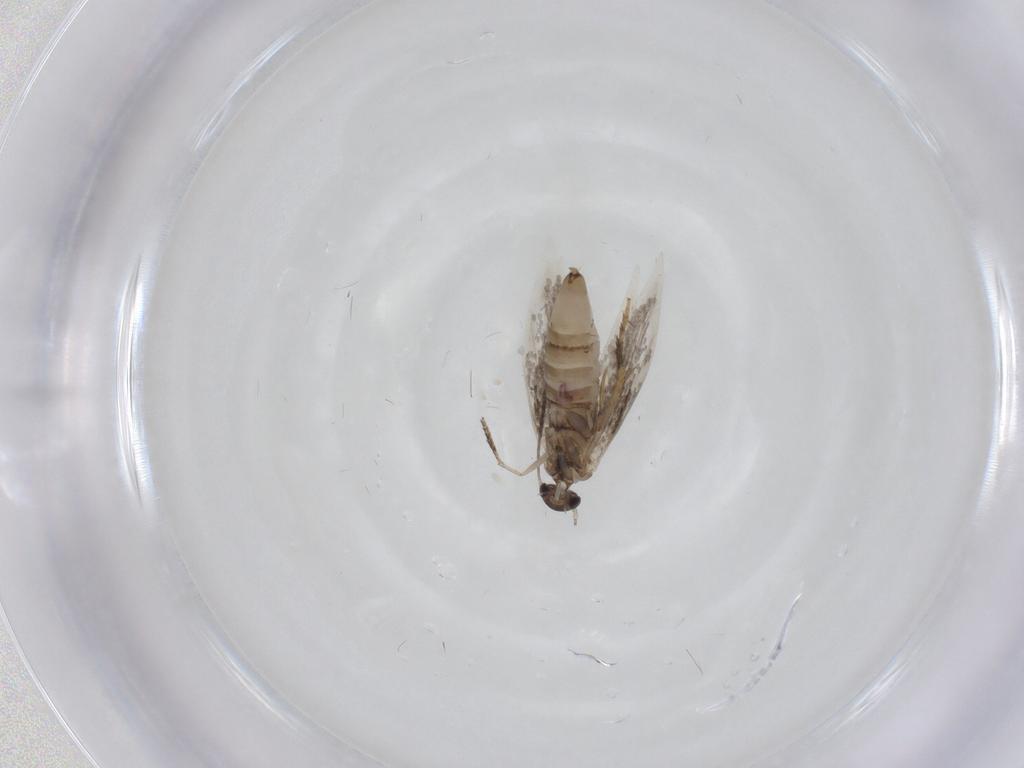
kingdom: Animalia
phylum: Arthropoda
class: Insecta
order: Lepidoptera
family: Heliozelidae
